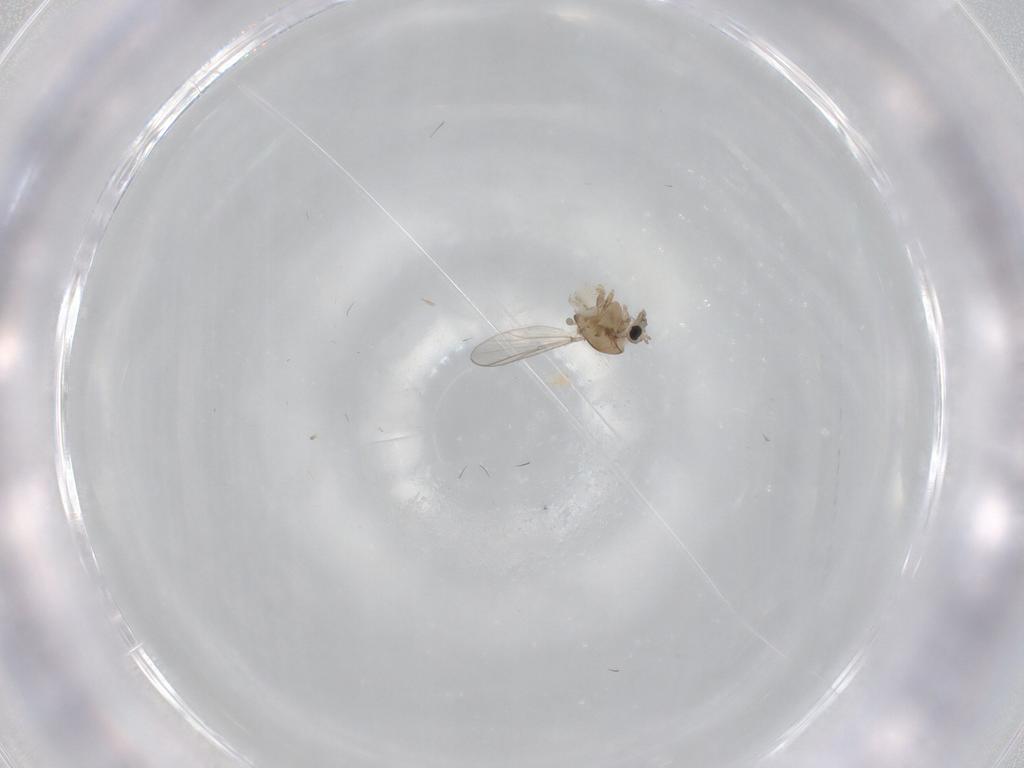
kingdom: Animalia
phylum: Arthropoda
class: Insecta
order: Diptera
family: Chironomidae
